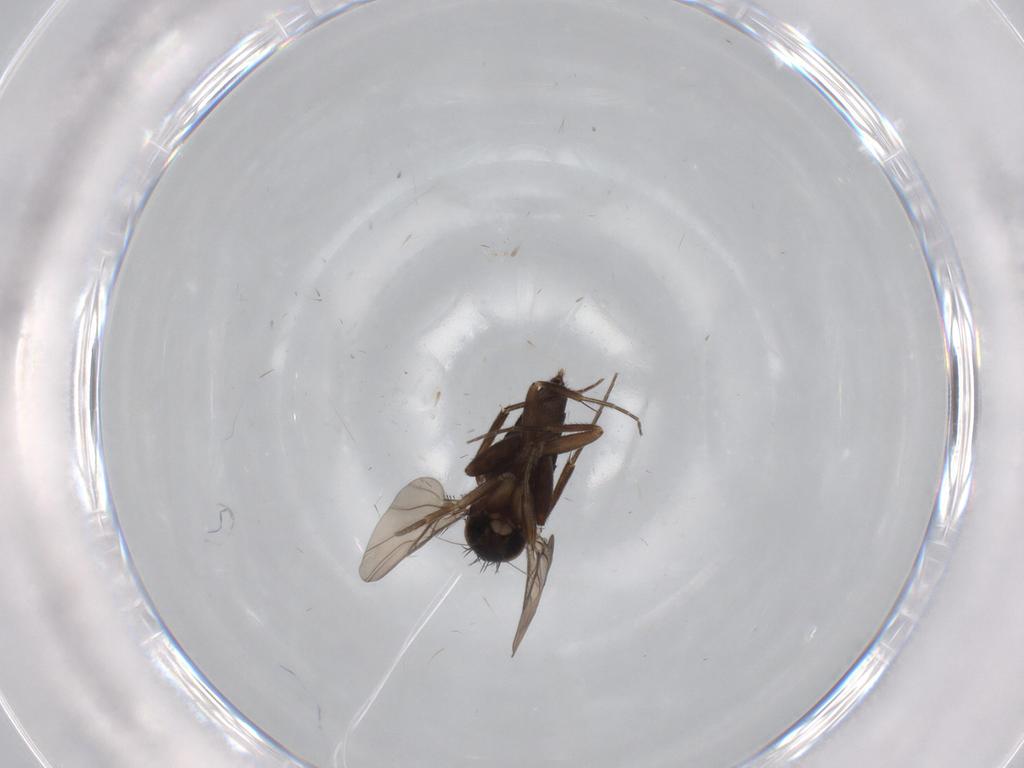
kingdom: Animalia
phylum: Arthropoda
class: Insecta
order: Diptera
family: Phoridae
